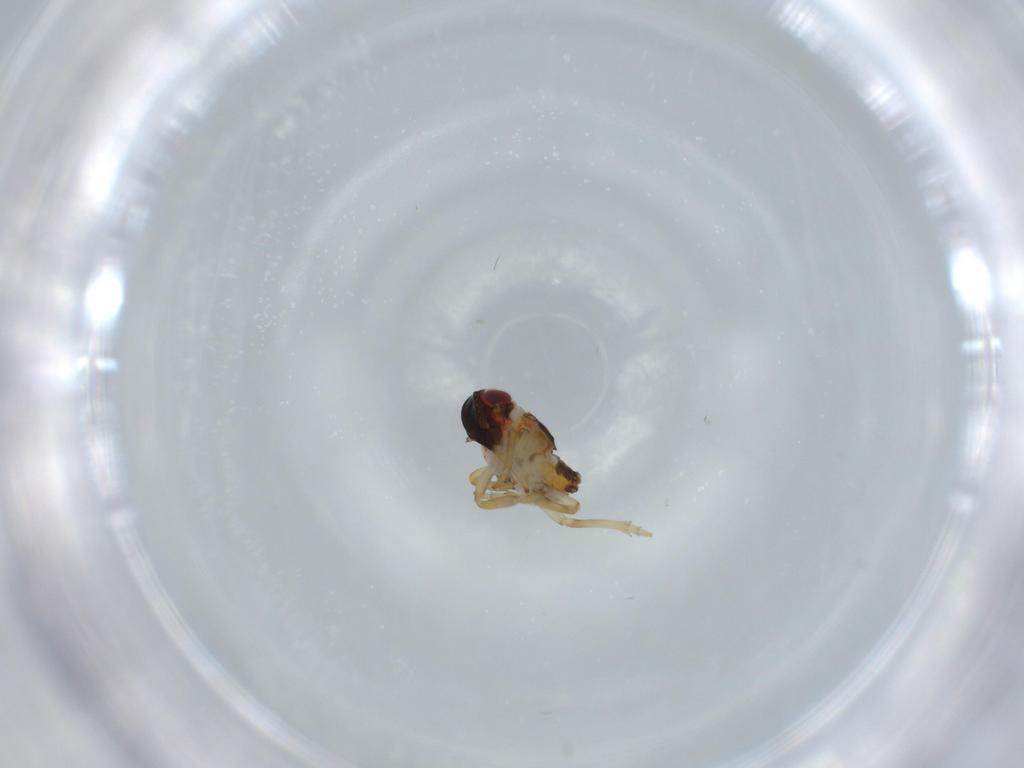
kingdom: Animalia
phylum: Arthropoda
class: Insecta
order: Hemiptera
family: Issidae
